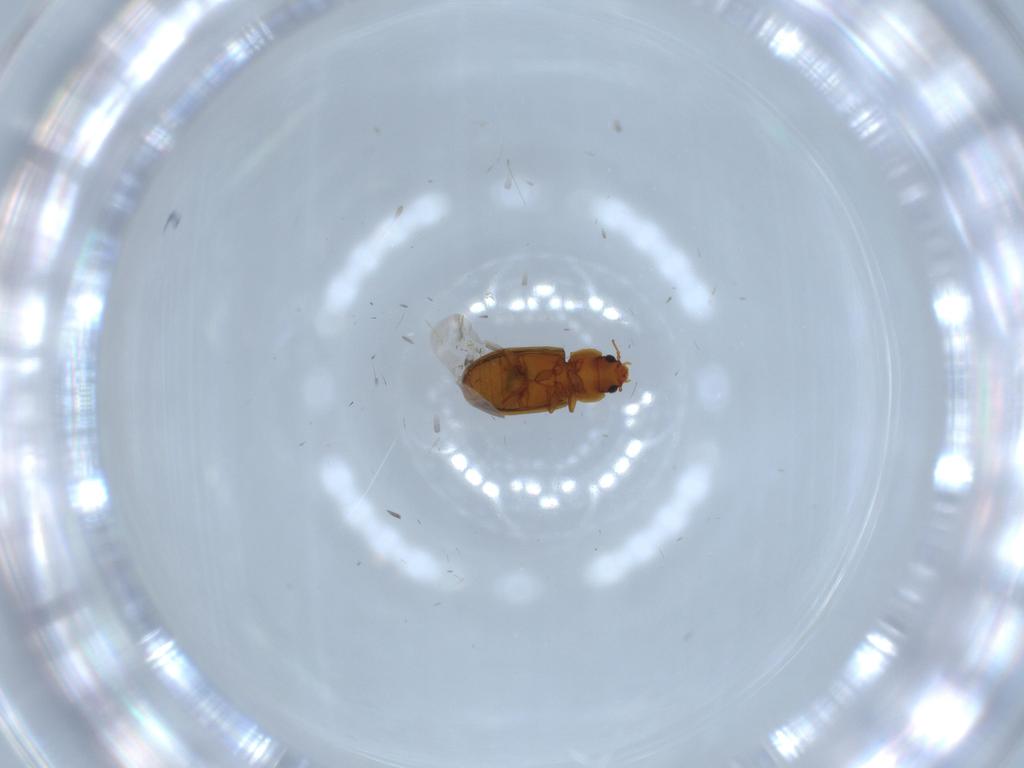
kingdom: Animalia
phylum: Arthropoda
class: Insecta
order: Coleoptera
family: Laemophloeidae
